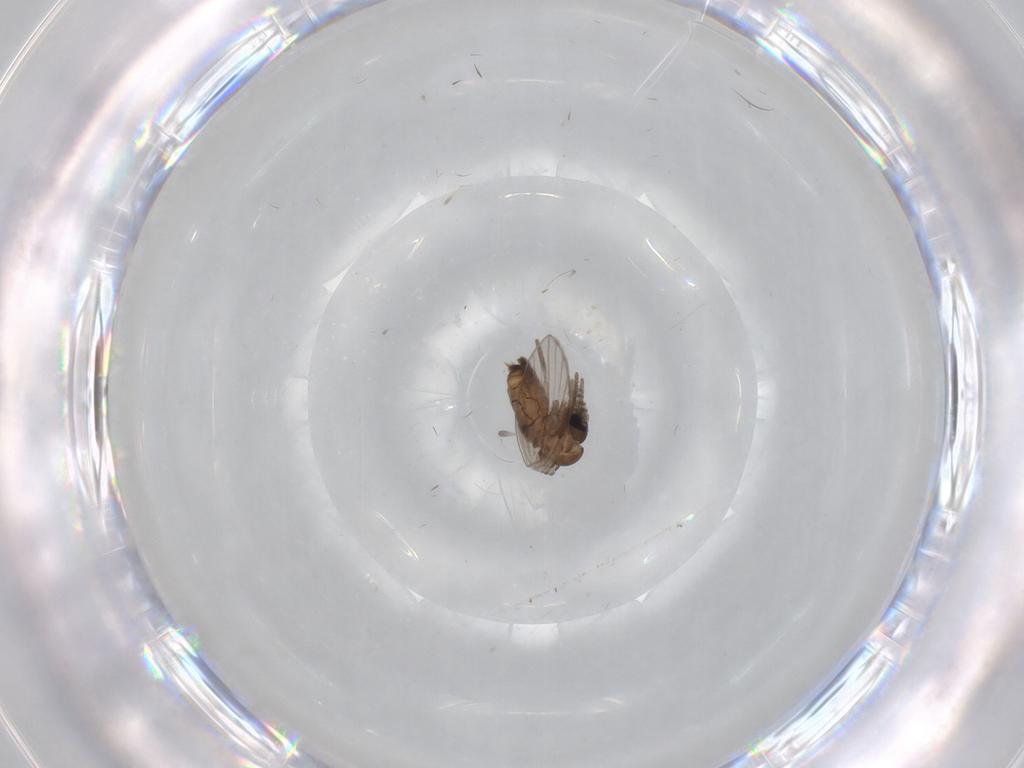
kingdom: Animalia
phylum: Arthropoda
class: Insecta
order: Diptera
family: Psychodidae
